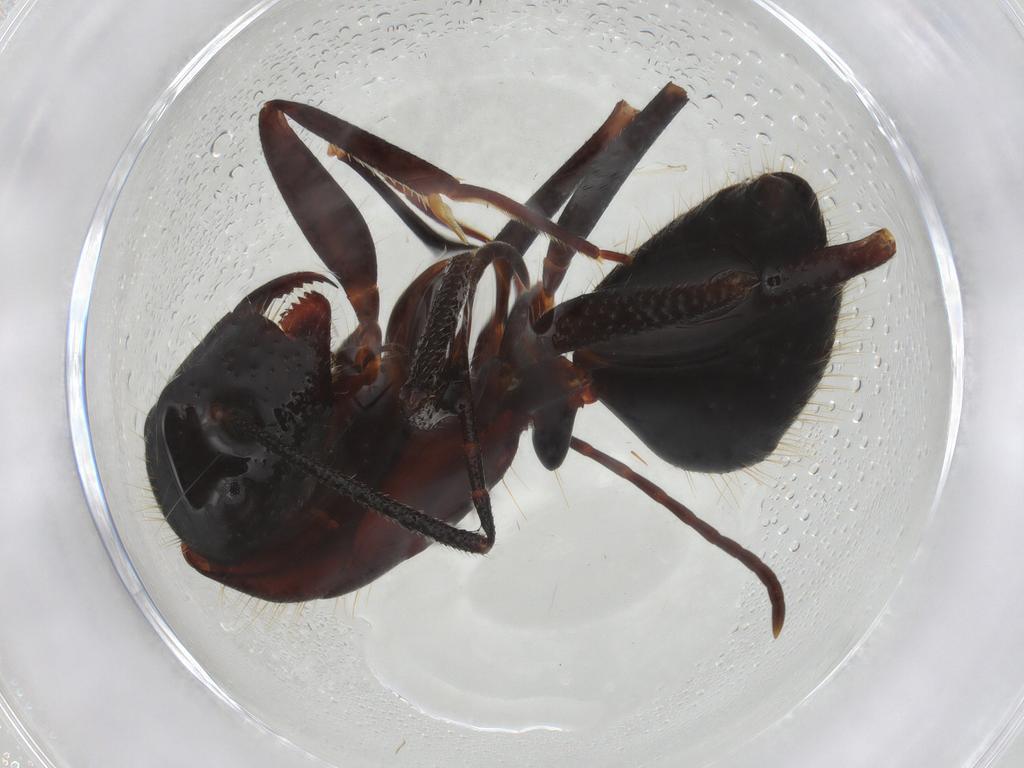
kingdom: Animalia
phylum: Arthropoda
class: Insecta
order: Hymenoptera
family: Formicidae
